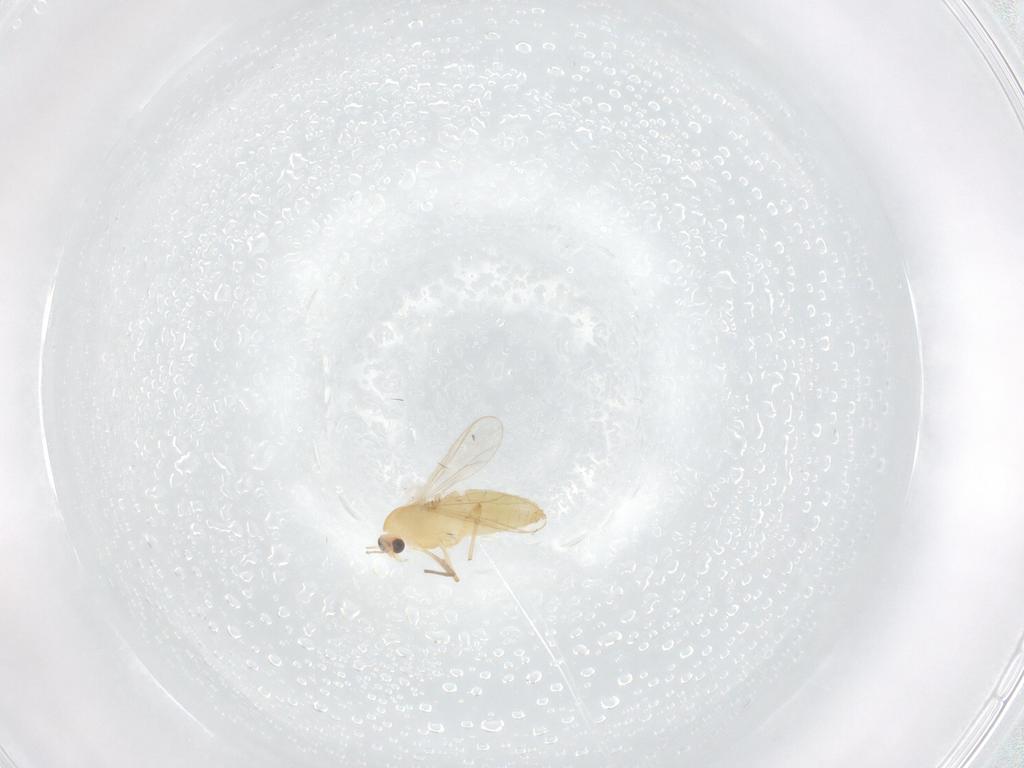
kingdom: Animalia
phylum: Arthropoda
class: Insecta
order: Diptera
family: Chironomidae
